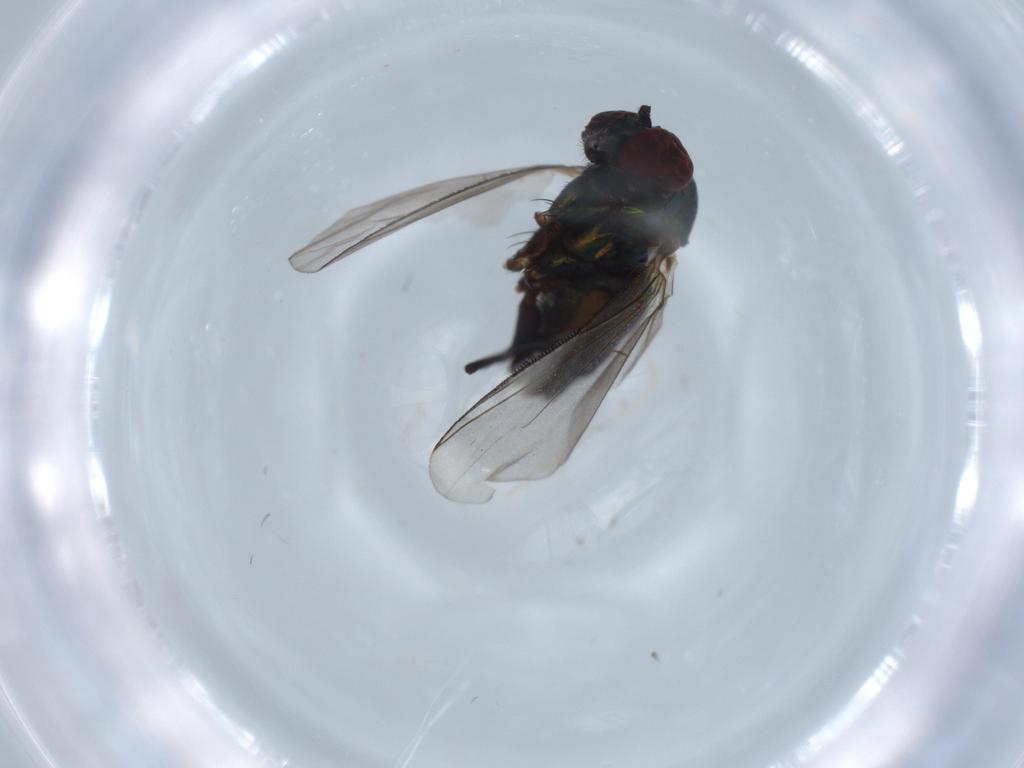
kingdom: Animalia
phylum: Arthropoda
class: Insecta
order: Diptera
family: Dolichopodidae
